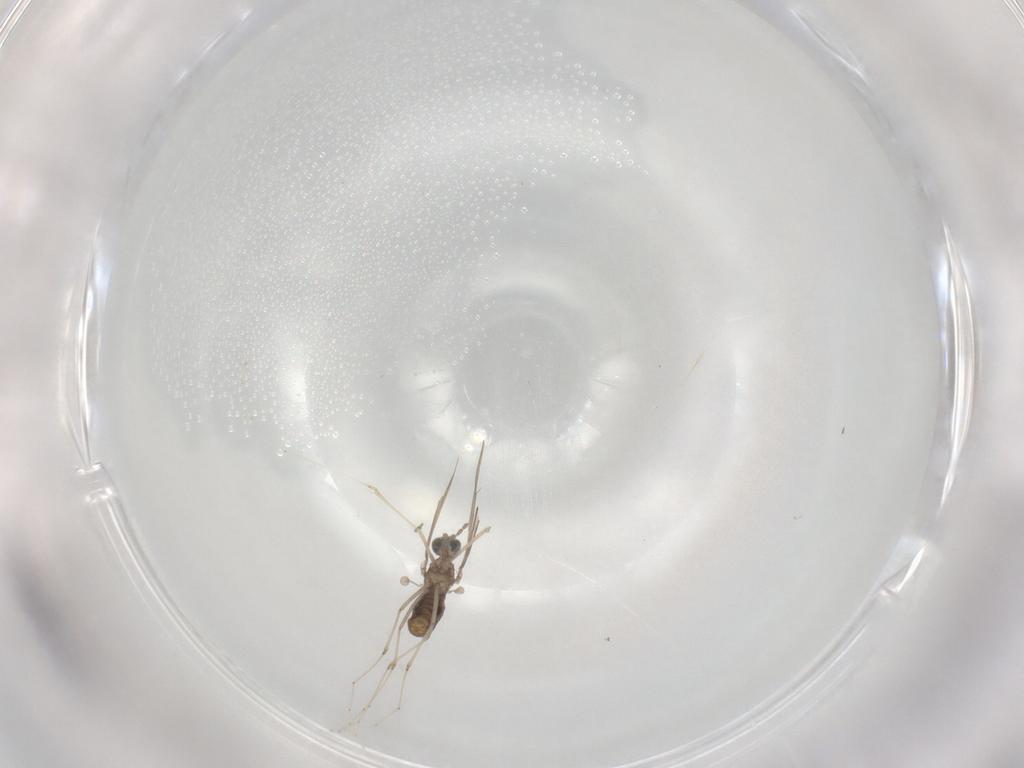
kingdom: Animalia
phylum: Arthropoda
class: Insecta
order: Diptera
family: Cecidomyiidae
